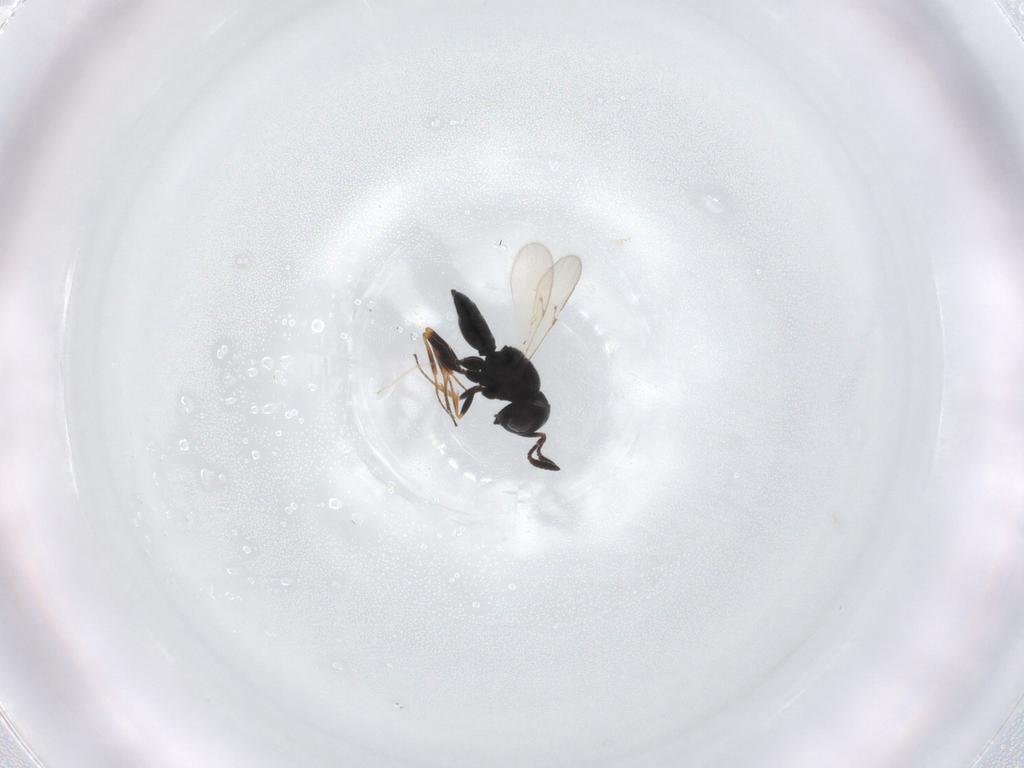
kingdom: Animalia
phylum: Arthropoda
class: Insecta
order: Hymenoptera
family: Scelionidae
